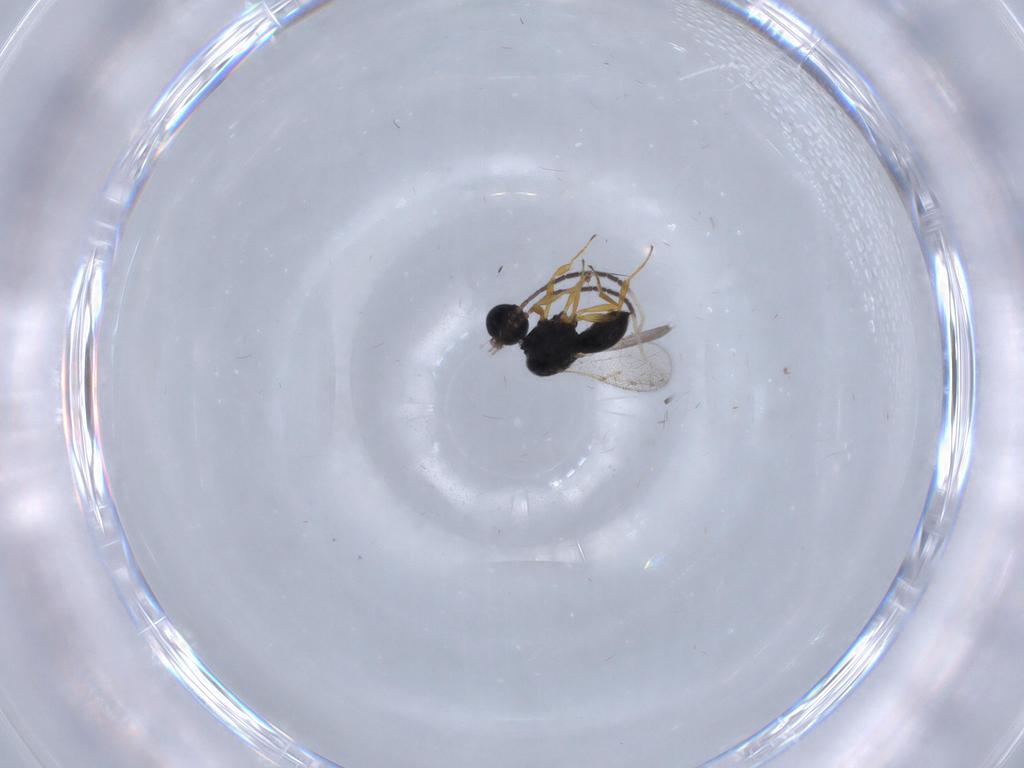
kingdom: Animalia
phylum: Arthropoda
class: Insecta
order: Hymenoptera
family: Scelionidae
